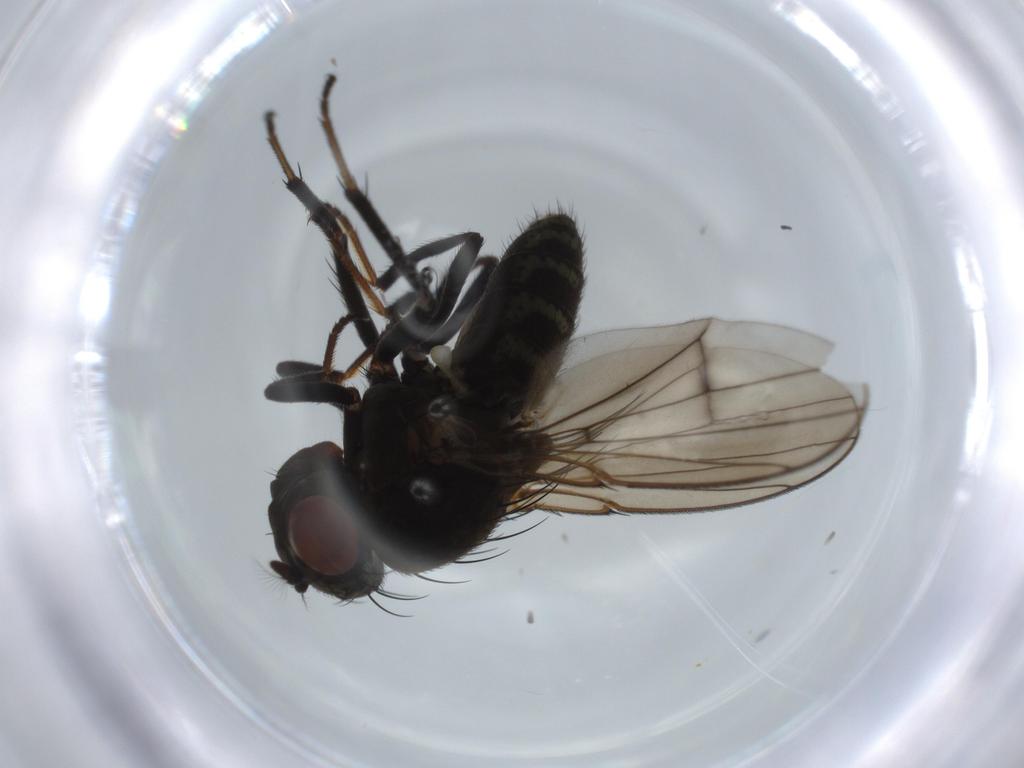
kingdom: Animalia
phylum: Arthropoda
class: Insecta
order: Diptera
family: Ephydridae
